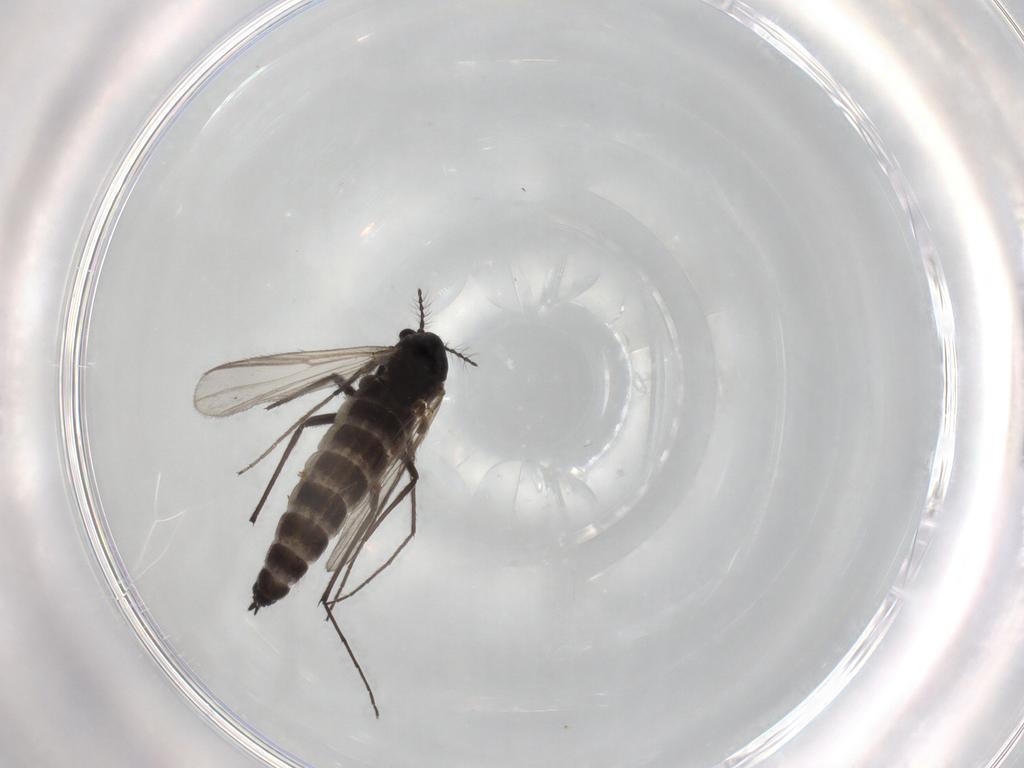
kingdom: Animalia
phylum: Arthropoda
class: Insecta
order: Diptera
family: Chironomidae
